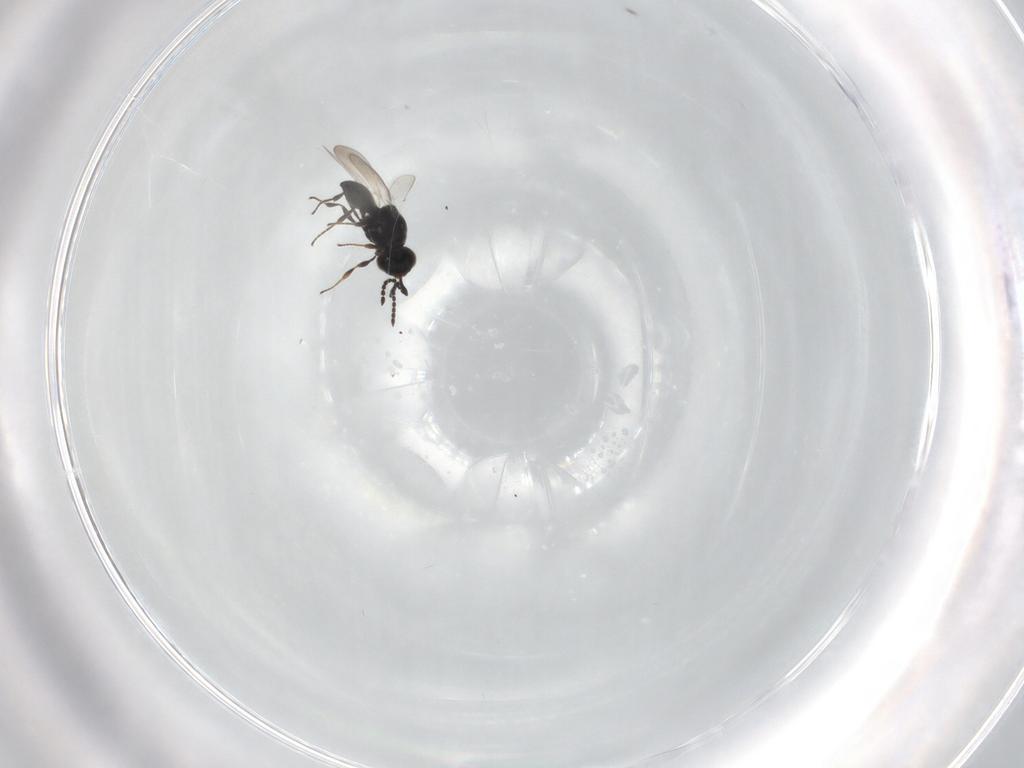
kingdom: Animalia
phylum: Arthropoda
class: Insecta
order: Hymenoptera
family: Platygastridae
